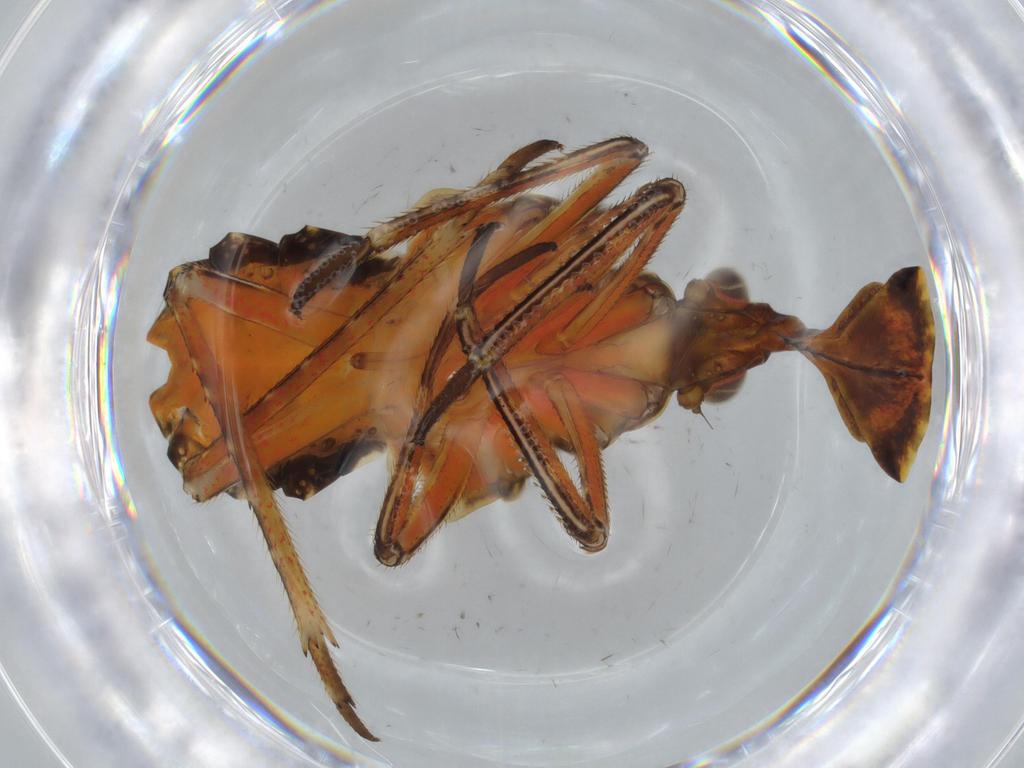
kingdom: Animalia
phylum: Arthropoda
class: Insecta
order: Hemiptera
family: Fulgoridae
